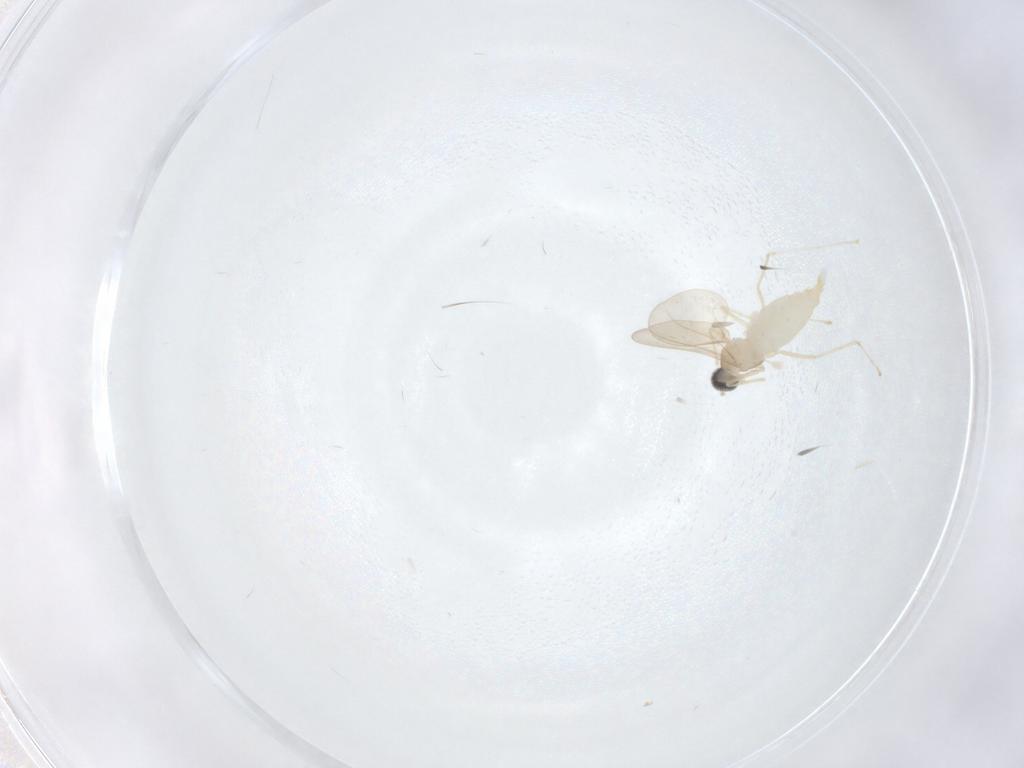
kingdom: Animalia
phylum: Arthropoda
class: Insecta
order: Diptera
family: Cecidomyiidae
